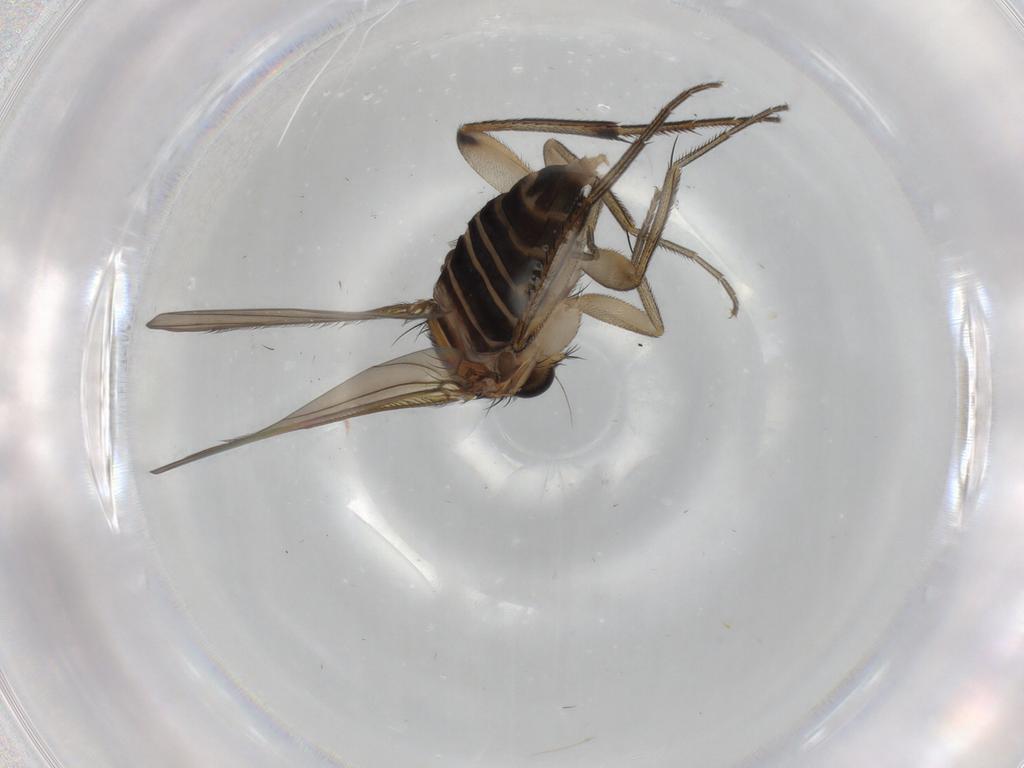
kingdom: Animalia
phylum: Arthropoda
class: Insecta
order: Diptera
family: Phoridae
